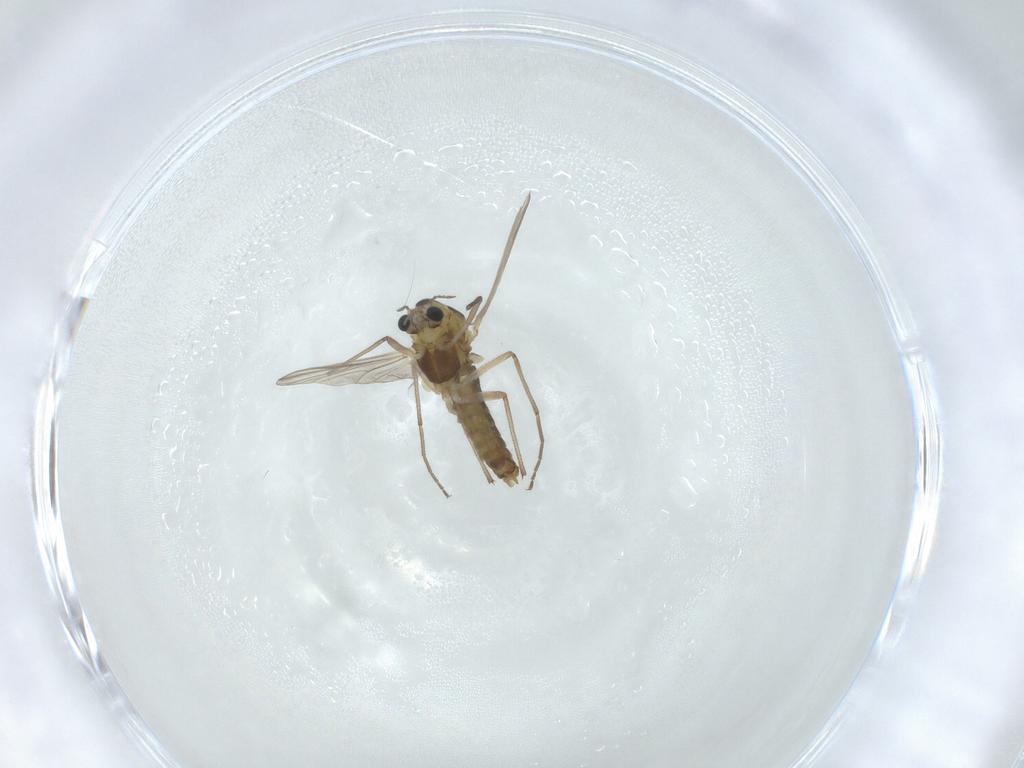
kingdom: Animalia
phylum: Arthropoda
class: Insecta
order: Diptera
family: Chironomidae
